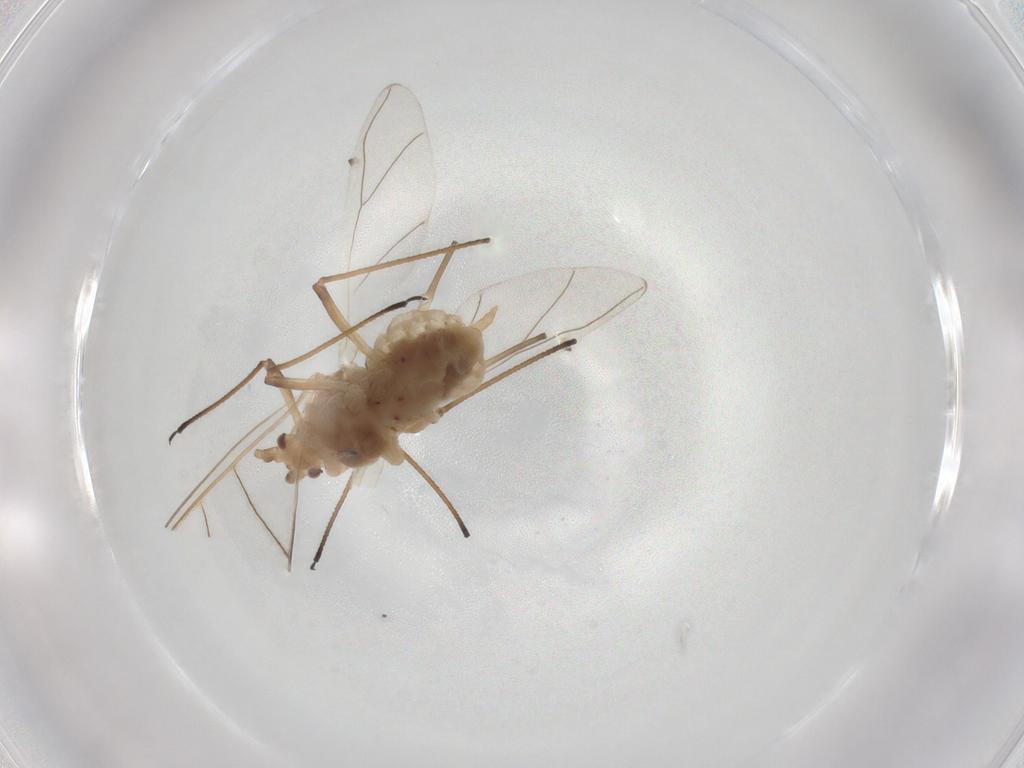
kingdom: Animalia
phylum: Arthropoda
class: Insecta
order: Hemiptera
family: Aphididae
